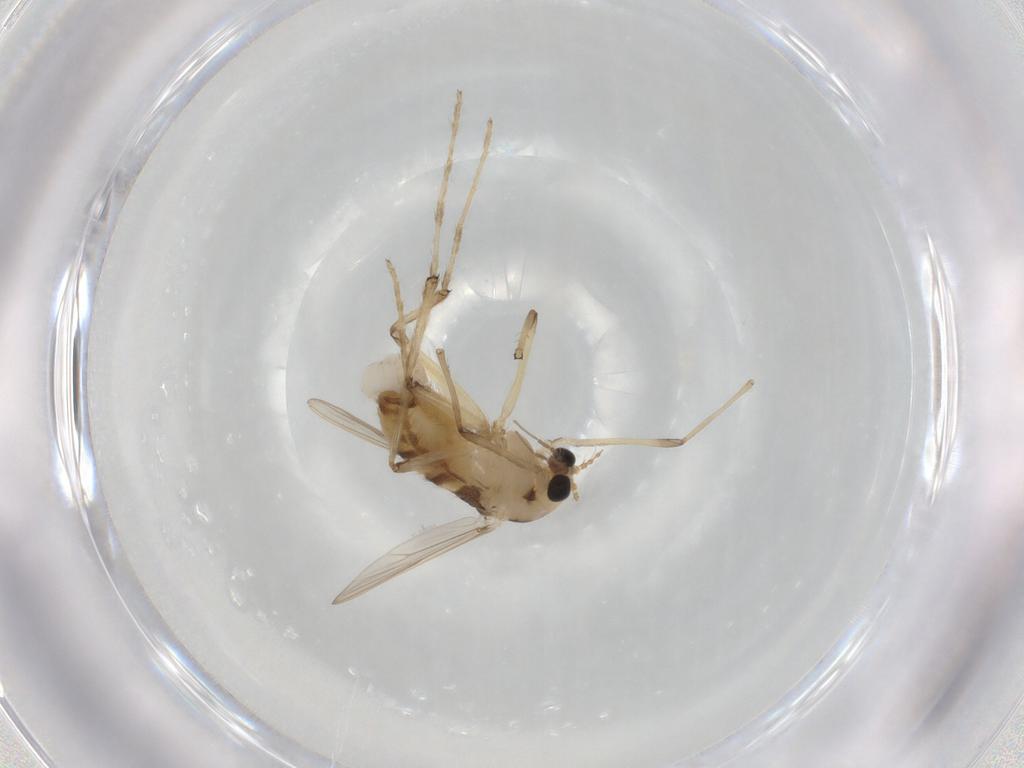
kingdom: Animalia
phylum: Arthropoda
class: Insecta
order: Diptera
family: Chironomidae
